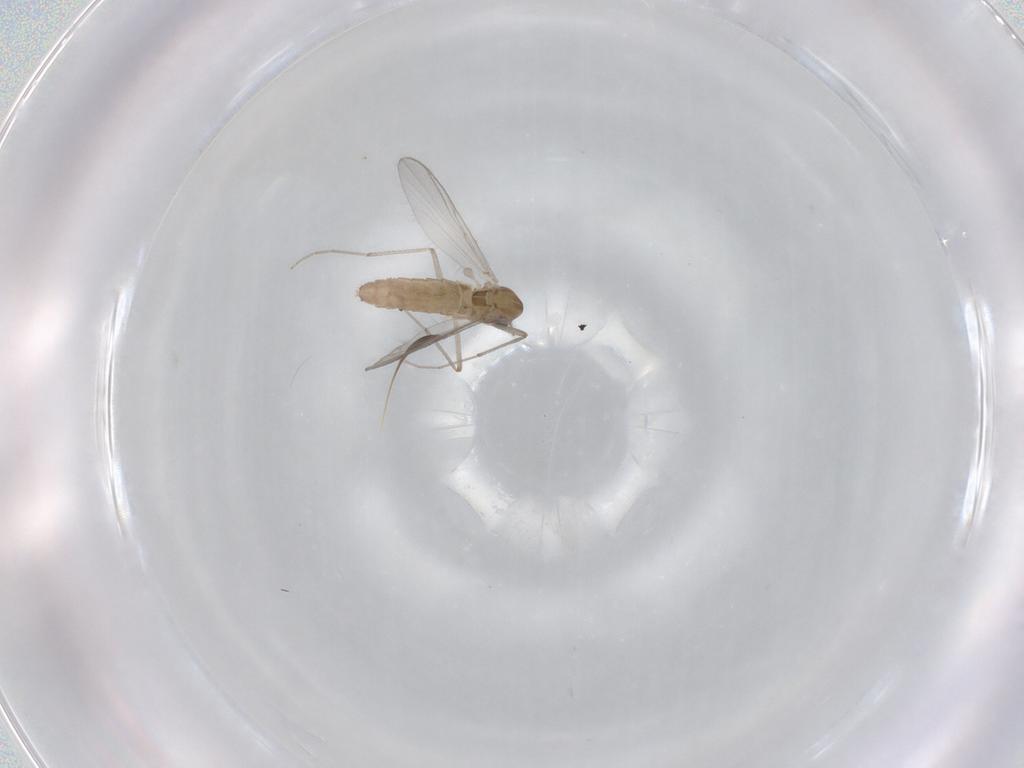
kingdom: Animalia
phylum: Arthropoda
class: Insecta
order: Diptera
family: Chironomidae
